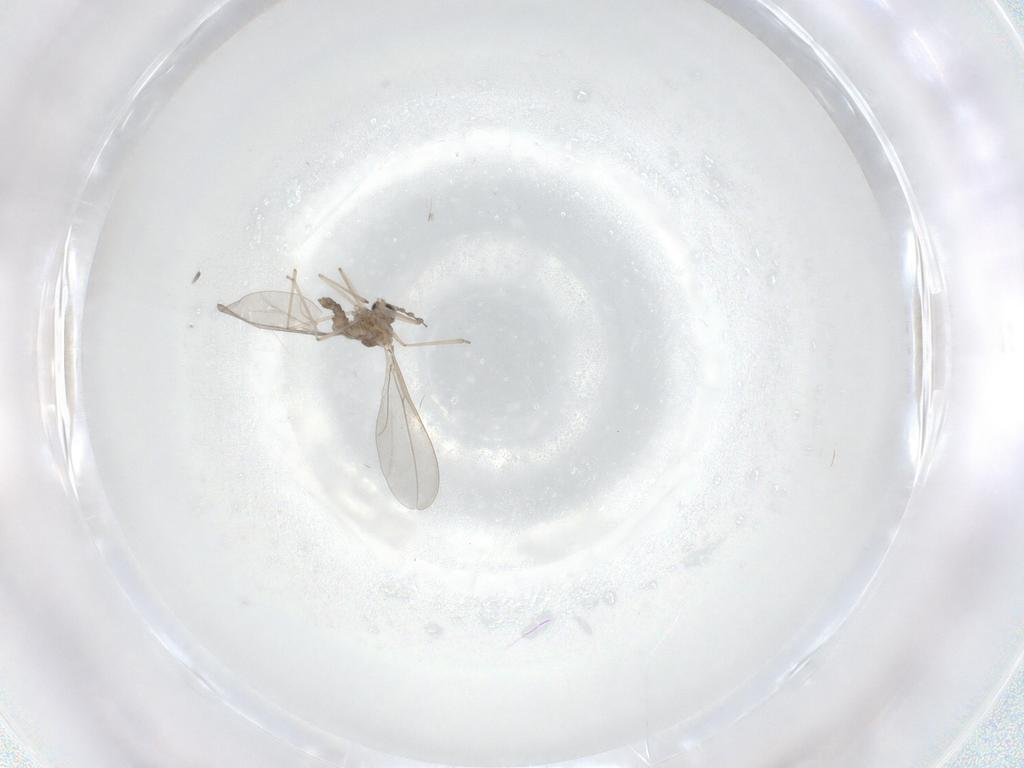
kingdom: Animalia
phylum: Arthropoda
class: Insecta
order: Diptera
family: Cecidomyiidae
